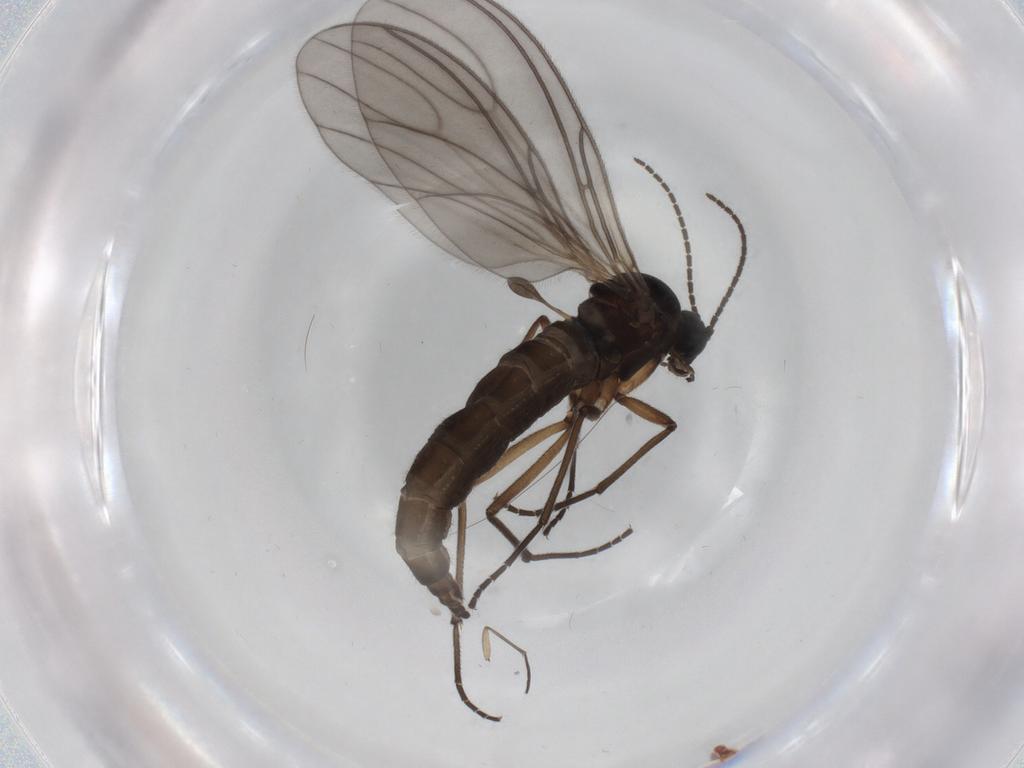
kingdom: Animalia
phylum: Arthropoda
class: Insecta
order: Diptera
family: Sciaridae
